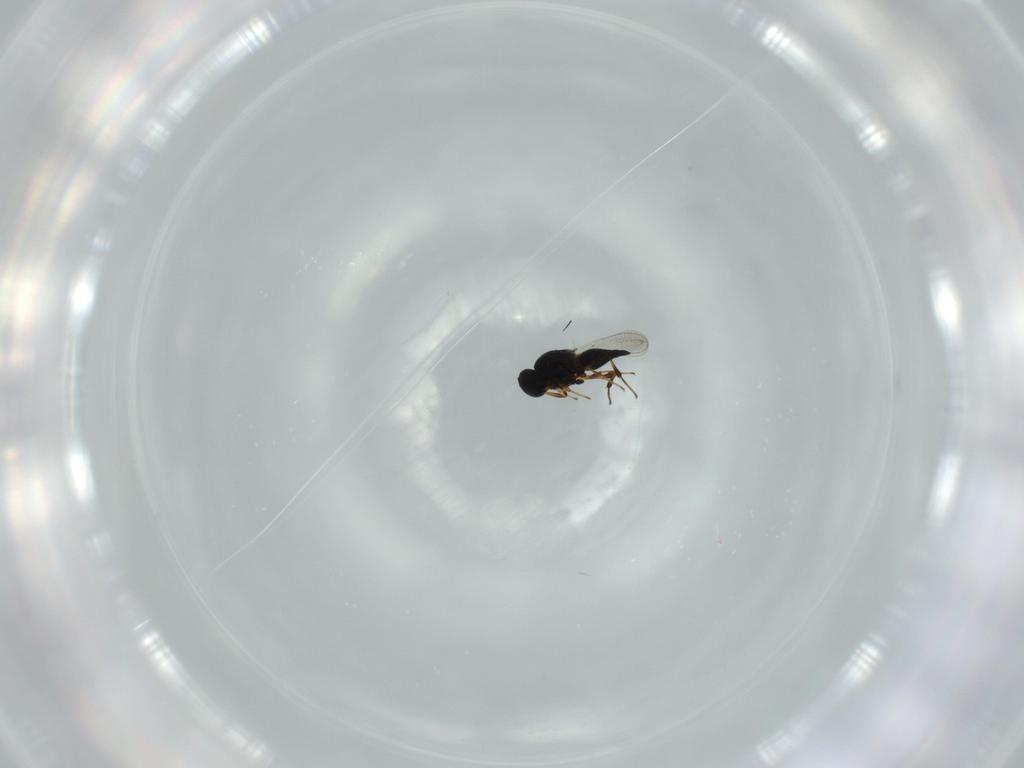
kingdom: Animalia
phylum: Arthropoda
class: Insecta
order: Hymenoptera
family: Platygastridae
